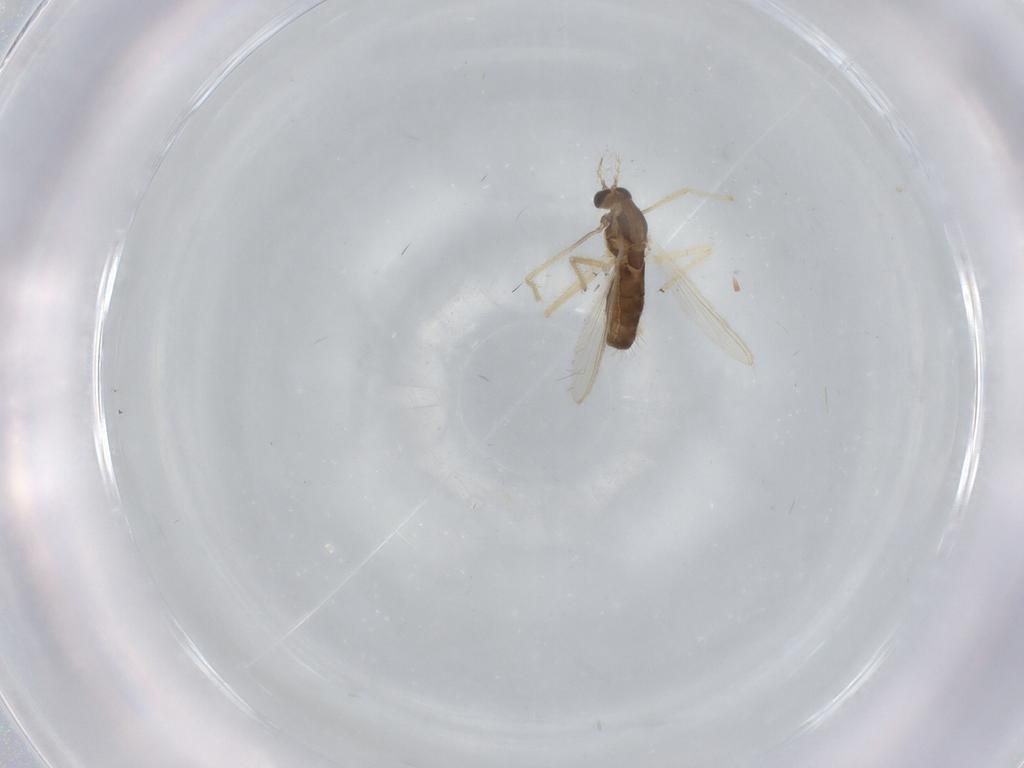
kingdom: Animalia
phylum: Arthropoda
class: Insecta
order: Diptera
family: Chironomidae
